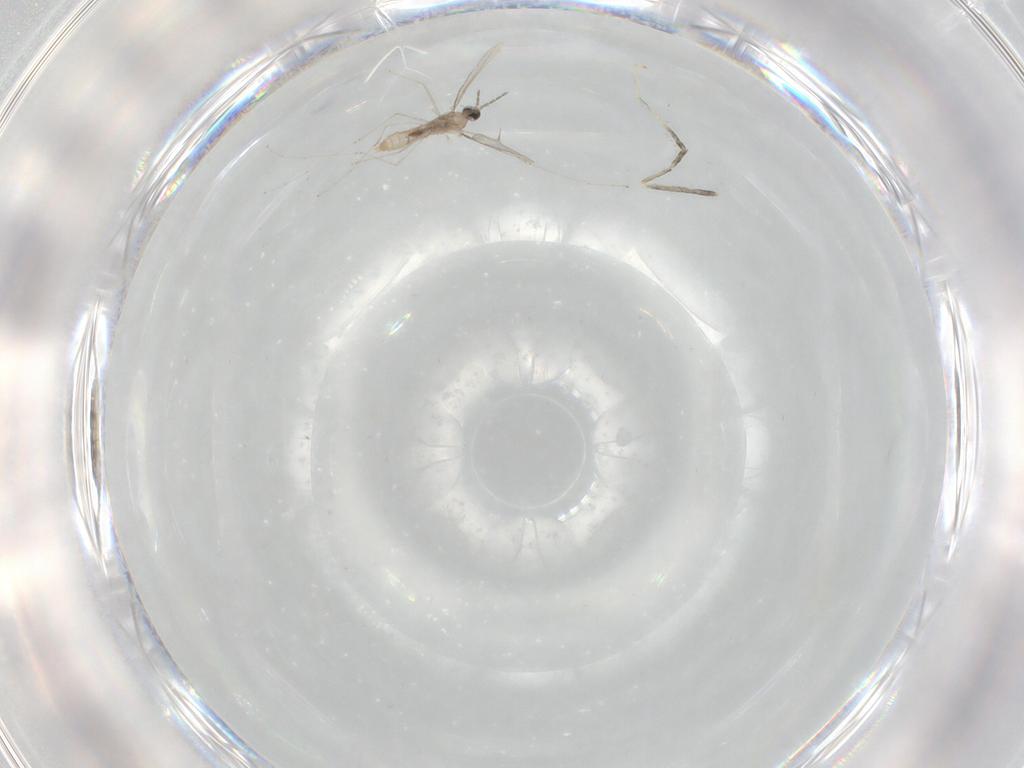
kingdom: Animalia
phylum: Arthropoda
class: Insecta
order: Diptera
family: Cecidomyiidae
